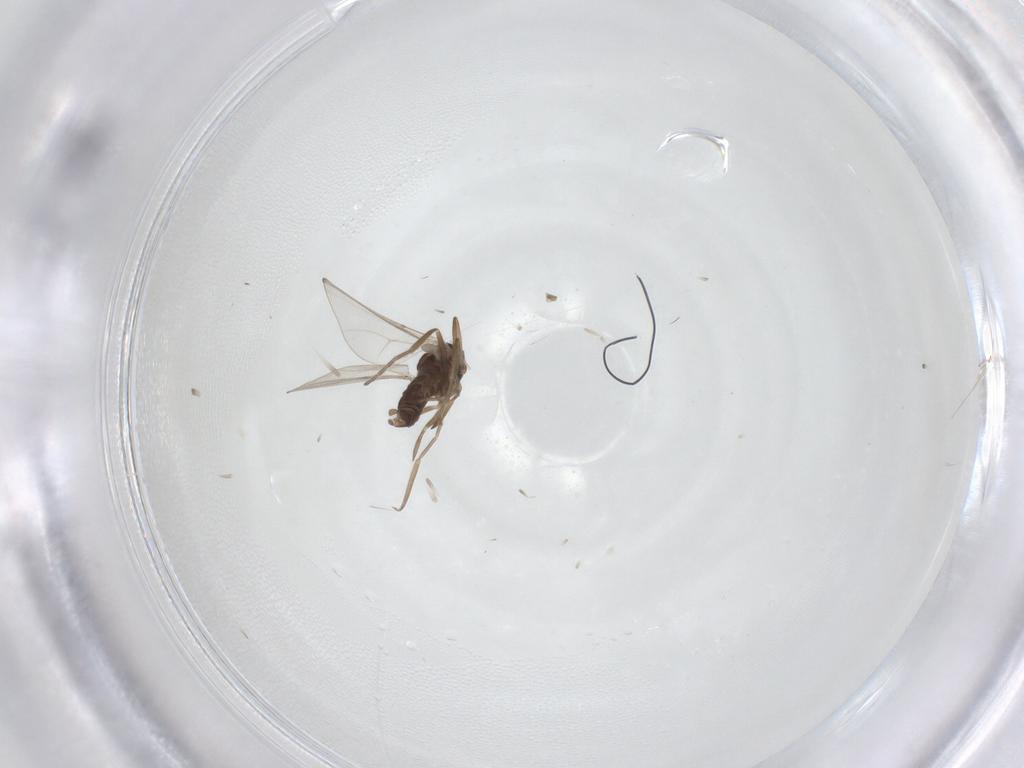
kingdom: Animalia
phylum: Arthropoda
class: Insecta
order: Diptera
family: Cecidomyiidae
